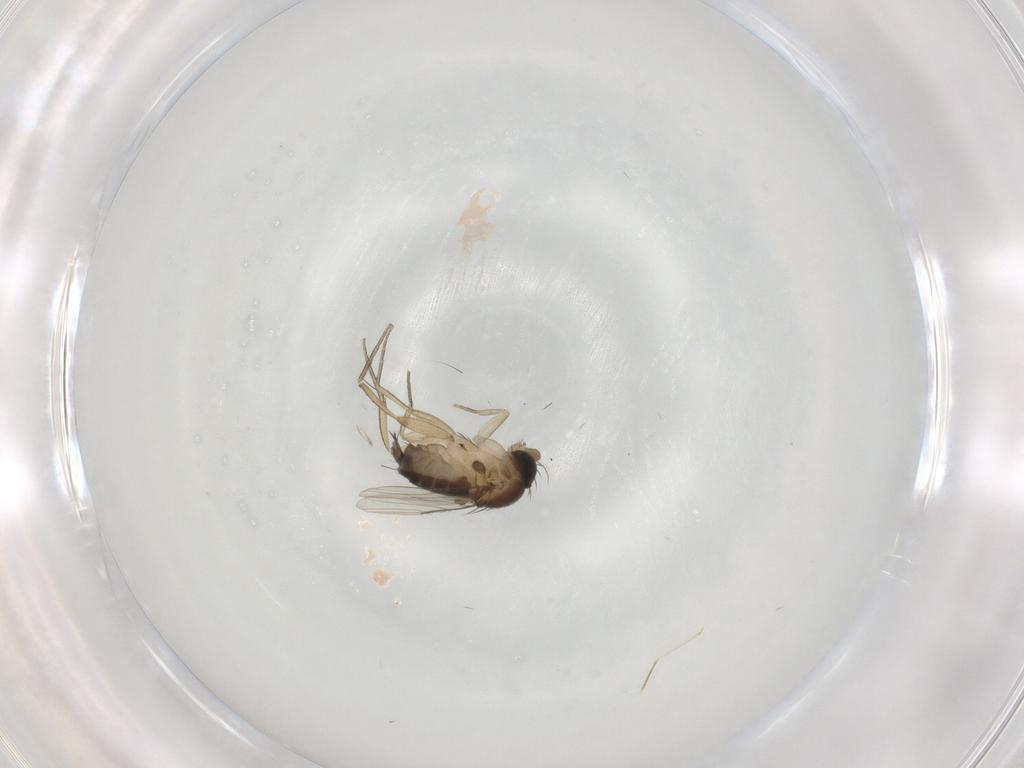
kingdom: Animalia
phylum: Arthropoda
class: Insecta
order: Diptera
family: Phoridae
